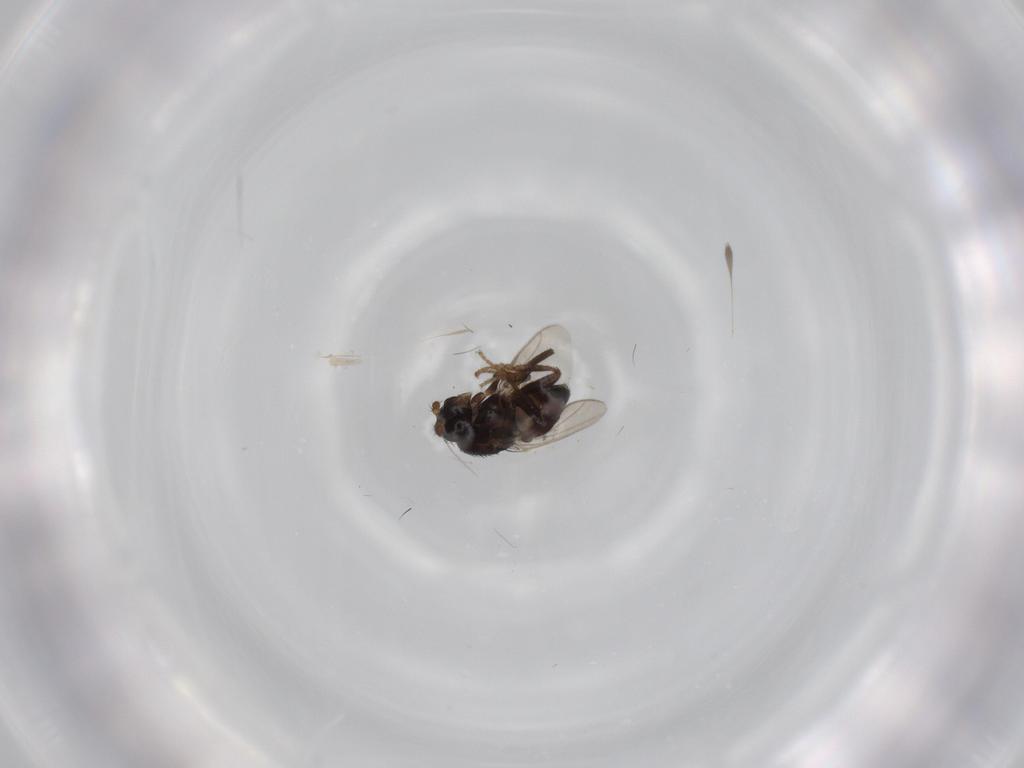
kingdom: Animalia
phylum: Arthropoda
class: Insecta
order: Diptera
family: Sphaeroceridae
